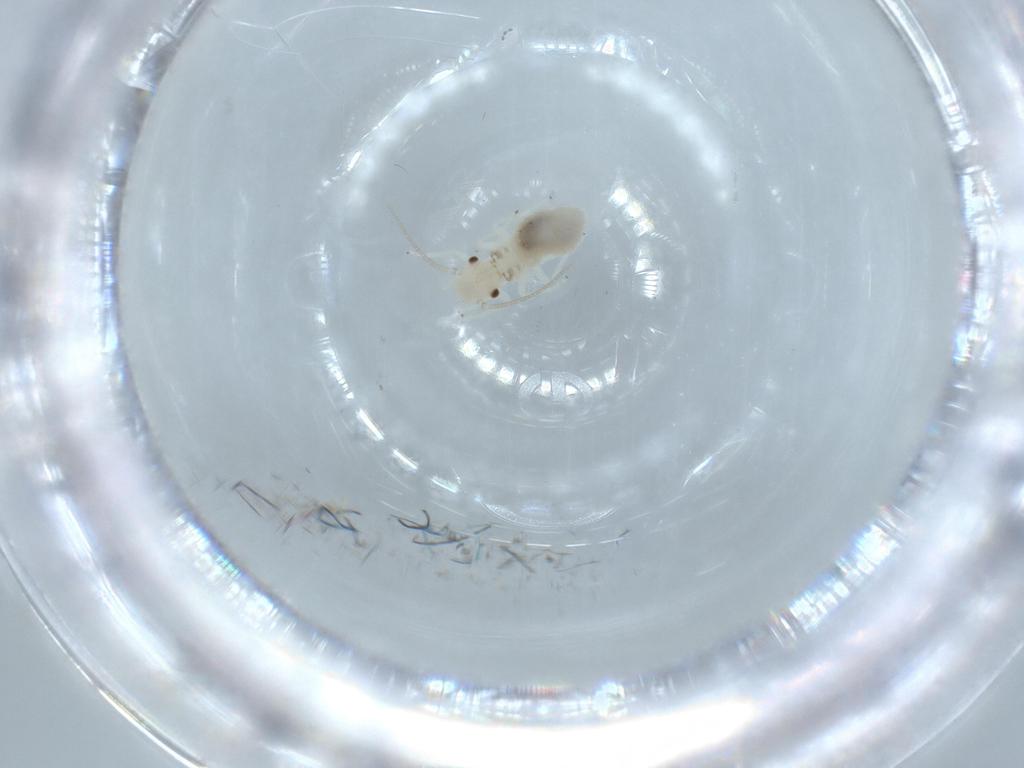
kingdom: Animalia
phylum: Arthropoda
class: Insecta
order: Psocodea
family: Caeciliusidae
